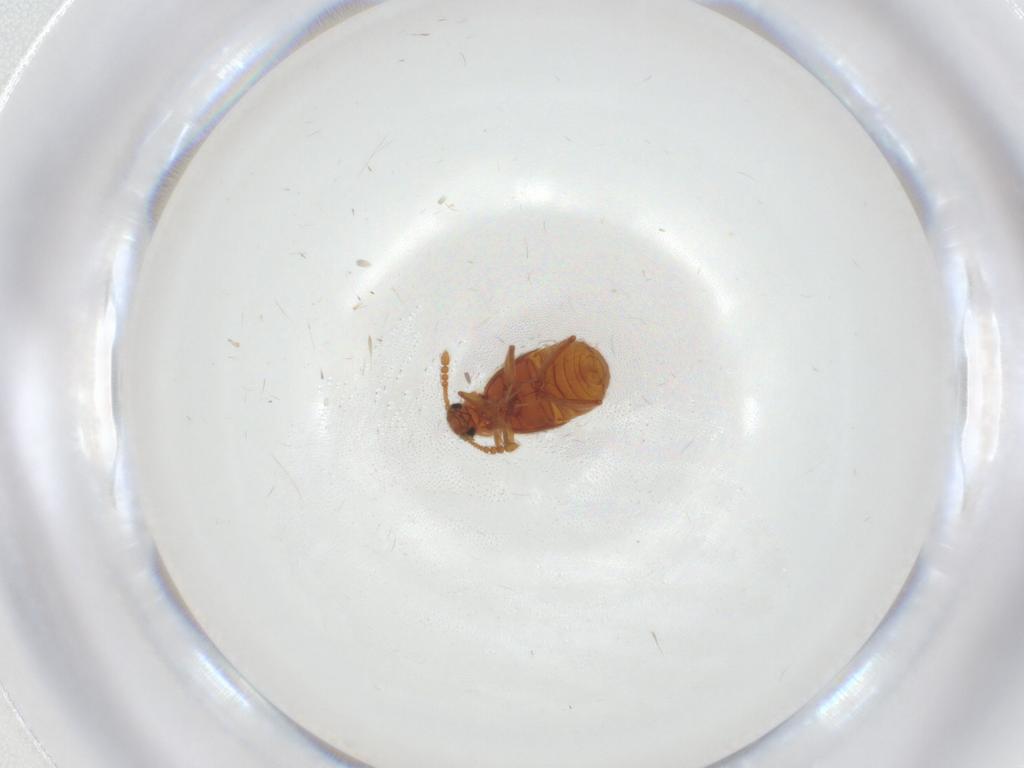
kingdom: Animalia
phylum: Arthropoda
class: Insecta
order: Coleoptera
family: Staphylinidae
